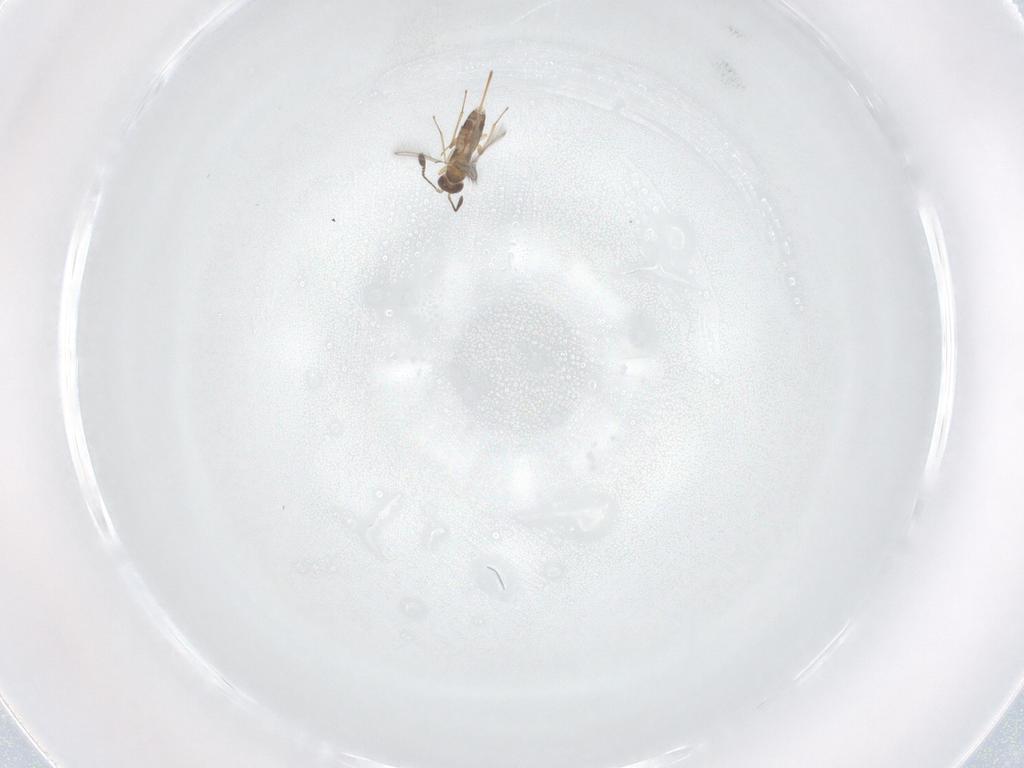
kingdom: Animalia
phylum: Arthropoda
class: Insecta
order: Hymenoptera
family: Mymaridae
